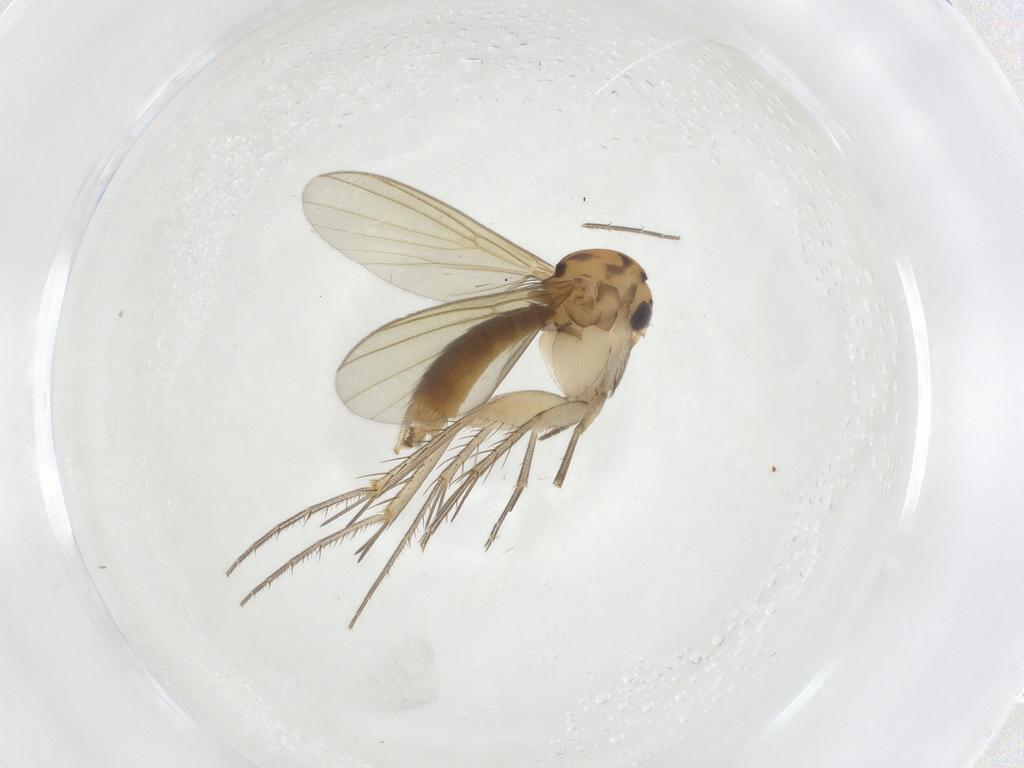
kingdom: Animalia
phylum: Arthropoda
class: Insecta
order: Diptera
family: Mycetophilidae
